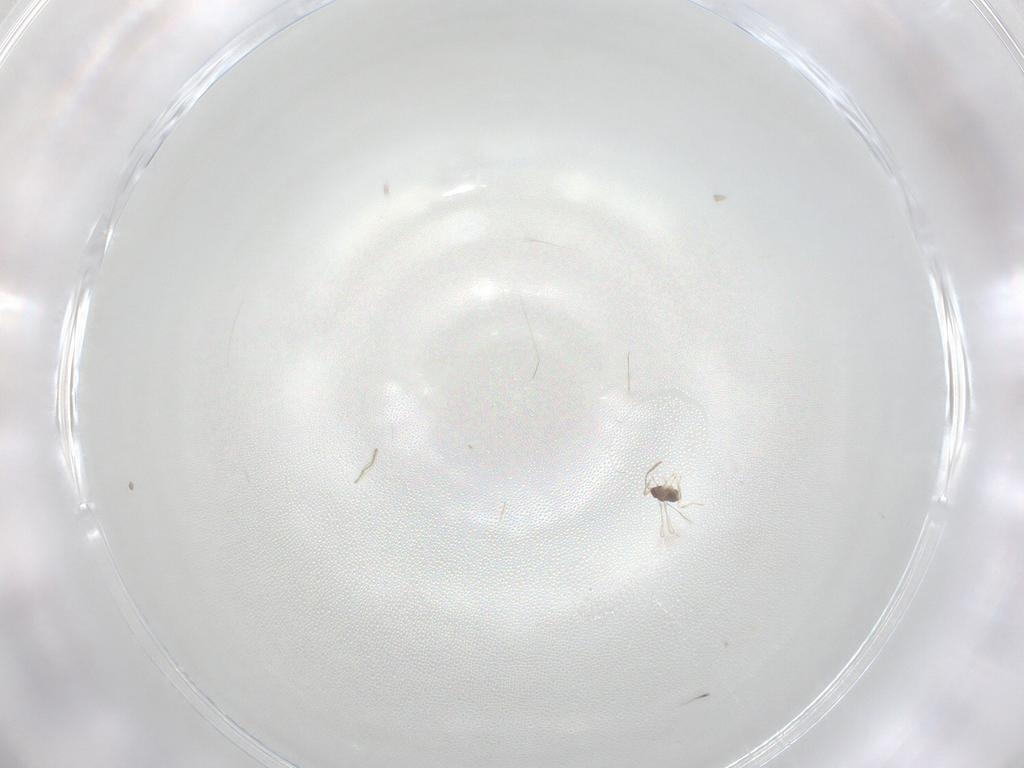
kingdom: Animalia
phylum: Arthropoda
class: Insecta
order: Hymenoptera
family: Mymaridae
